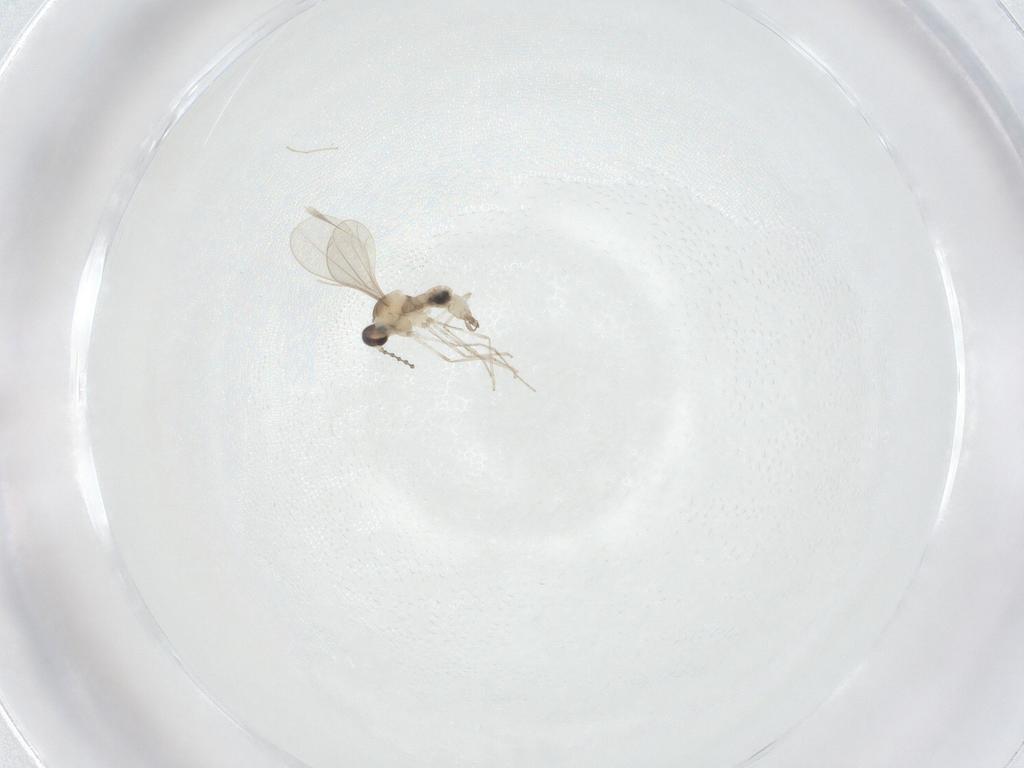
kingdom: Animalia
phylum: Arthropoda
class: Insecta
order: Diptera
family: Cecidomyiidae
